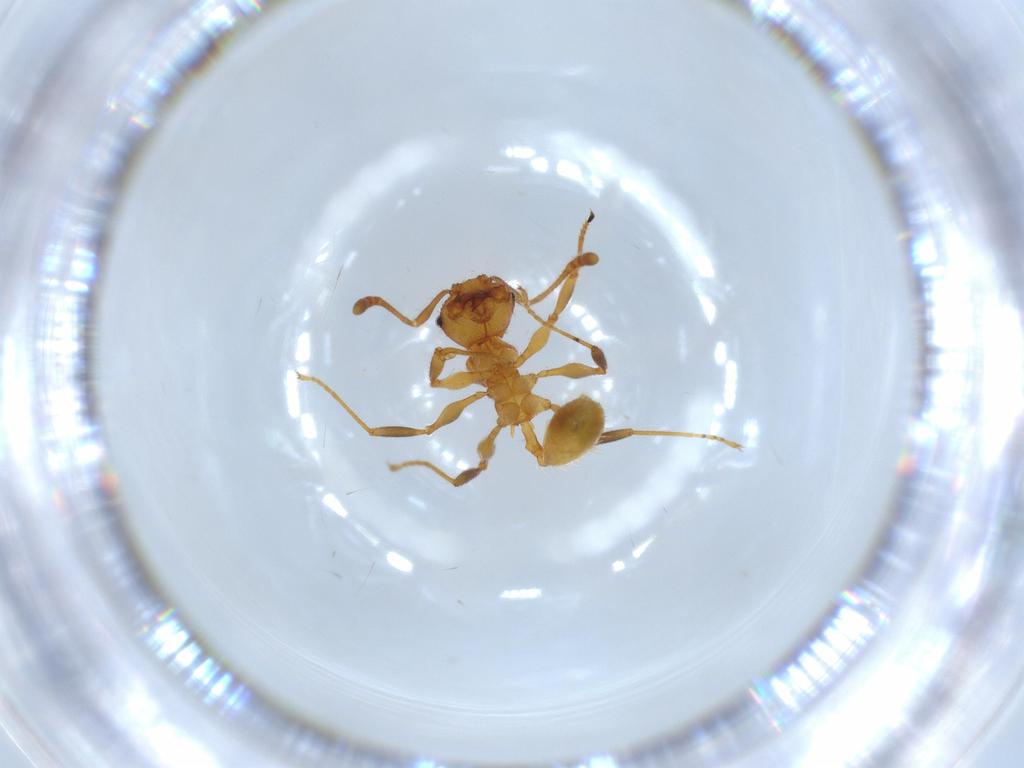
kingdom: Animalia
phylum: Arthropoda
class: Insecta
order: Hymenoptera
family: Formicidae
